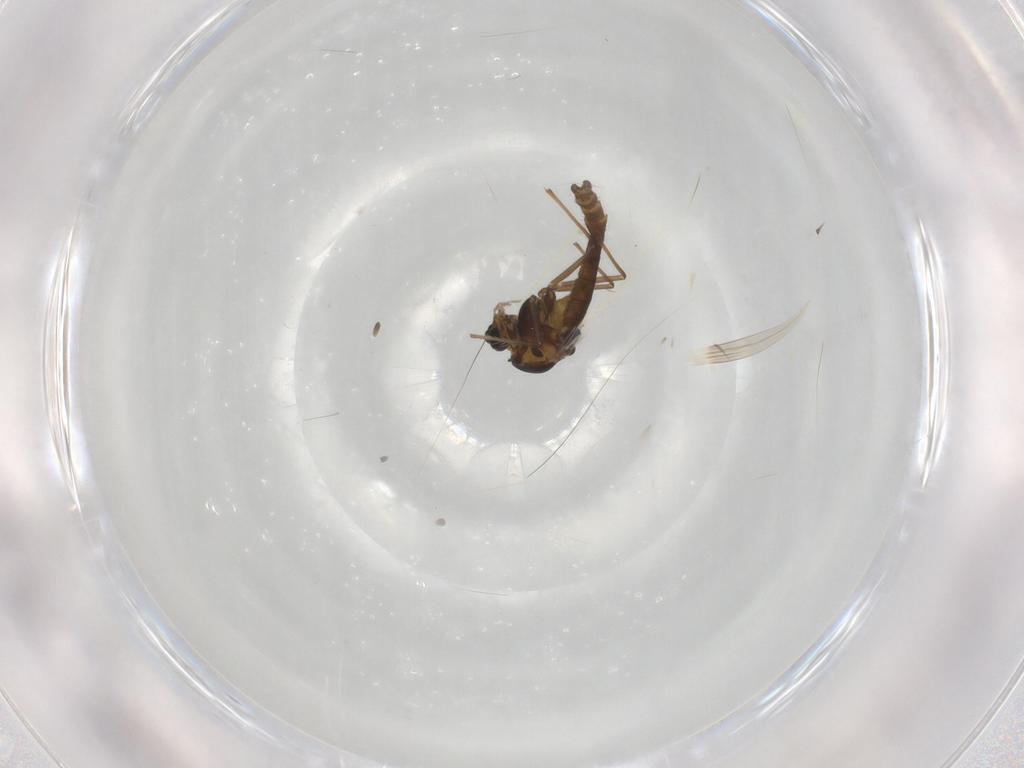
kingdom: Animalia
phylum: Arthropoda
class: Insecta
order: Diptera
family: Chironomidae
